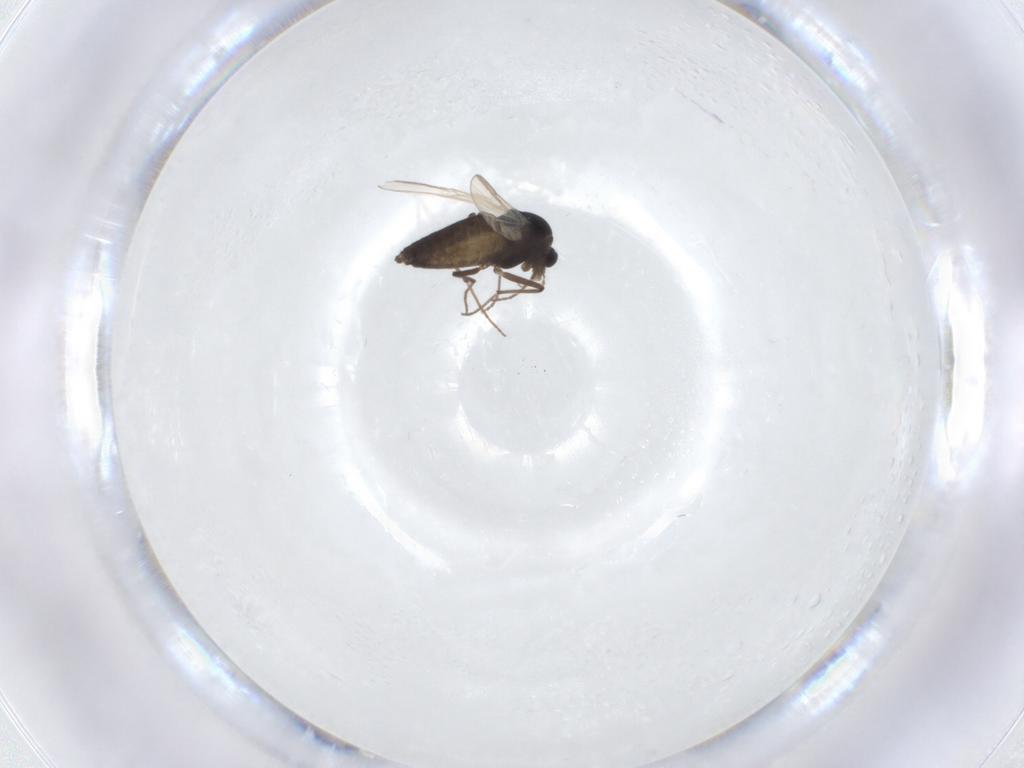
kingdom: Animalia
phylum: Arthropoda
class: Insecta
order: Diptera
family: Chironomidae
